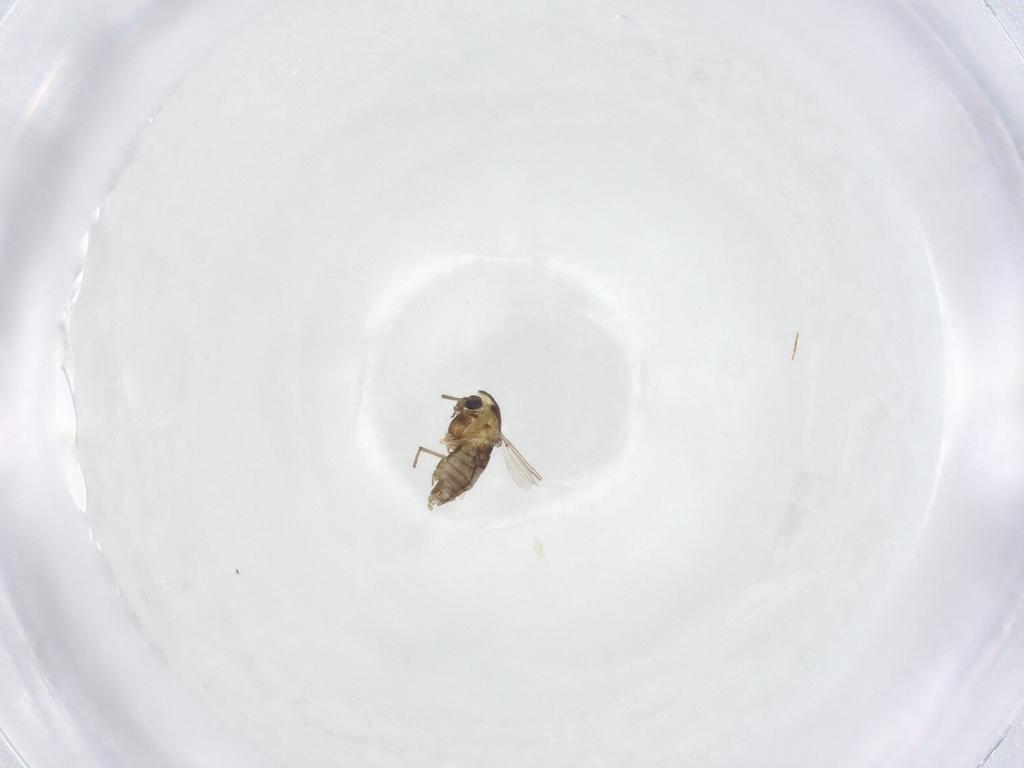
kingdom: Animalia
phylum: Arthropoda
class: Insecta
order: Diptera
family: Chironomidae
